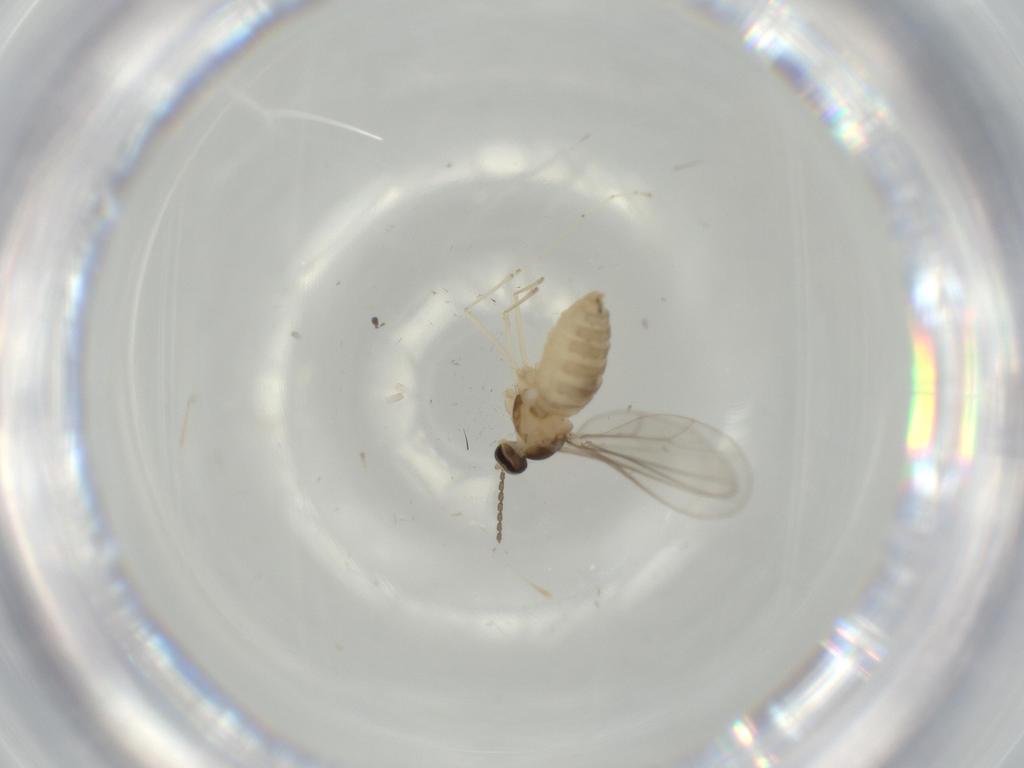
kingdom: Animalia
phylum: Arthropoda
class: Insecta
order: Diptera
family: Cecidomyiidae
